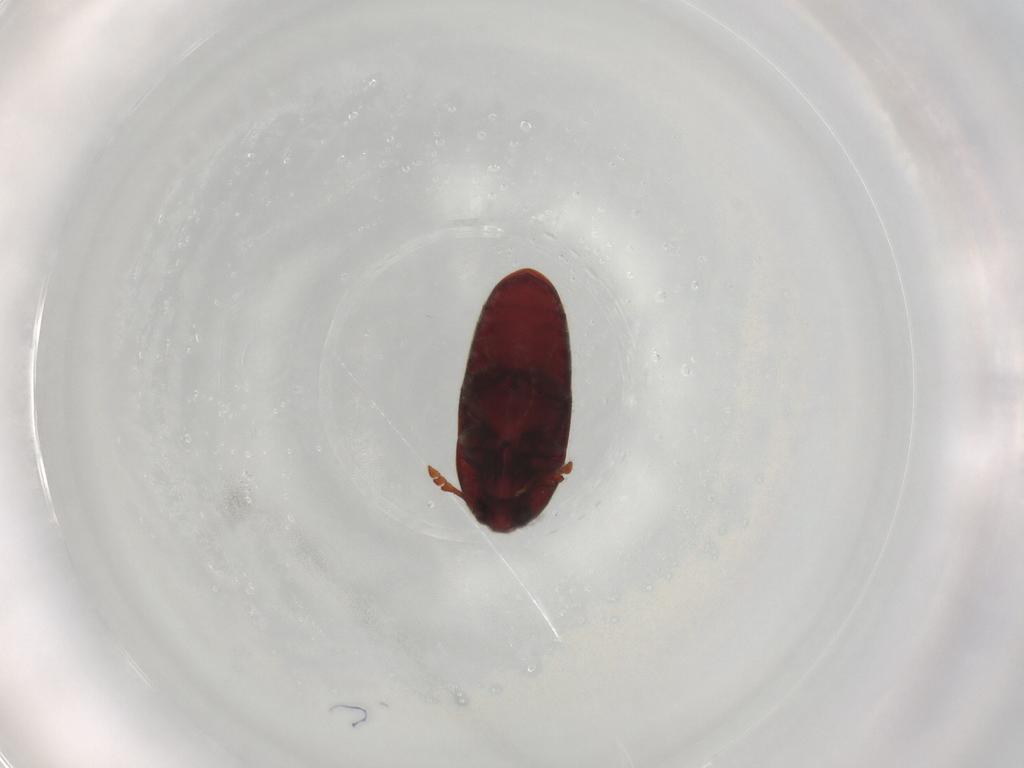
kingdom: Animalia
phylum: Arthropoda
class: Insecta
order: Coleoptera
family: Throscidae
